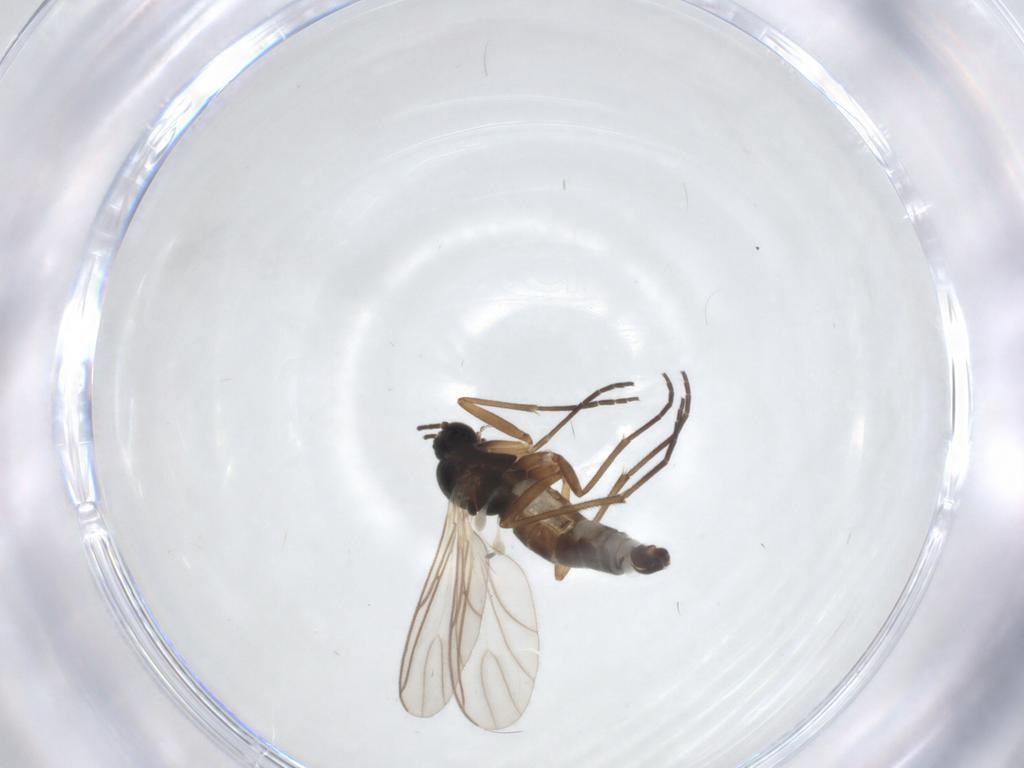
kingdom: Animalia
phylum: Arthropoda
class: Insecta
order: Diptera
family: Sciaridae
